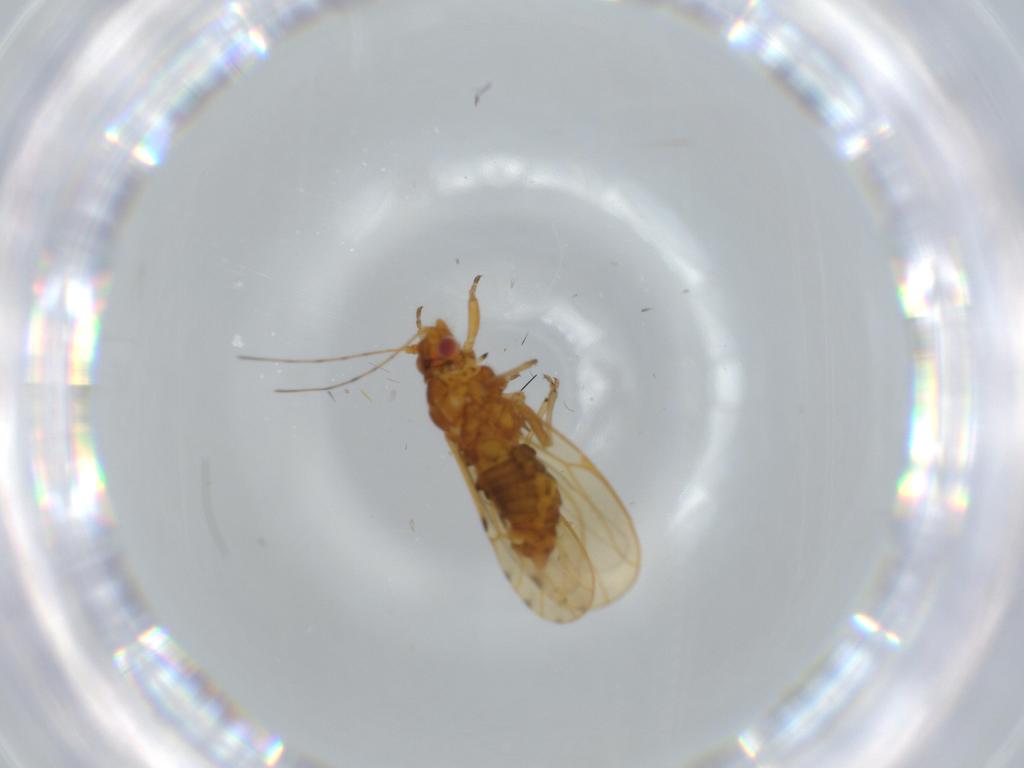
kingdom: Animalia
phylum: Arthropoda
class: Insecta
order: Hemiptera
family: Psylloidea_incertae_sedis
